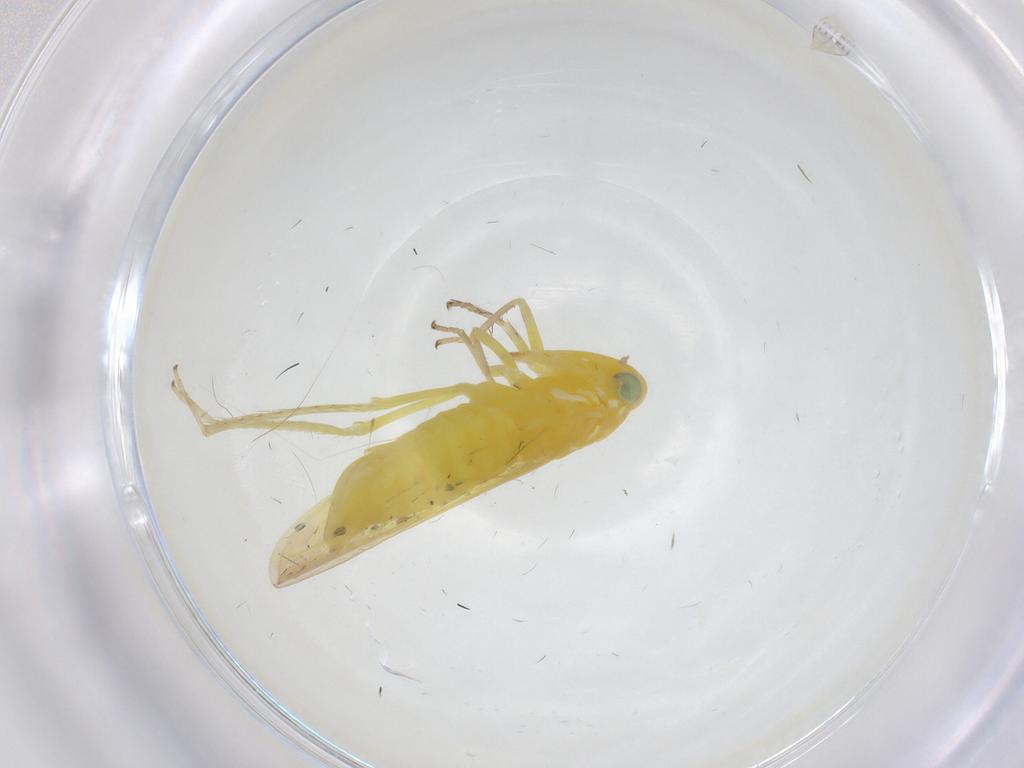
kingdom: Animalia
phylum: Arthropoda
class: Insecta
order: Hemiptera
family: Cicadellidae
